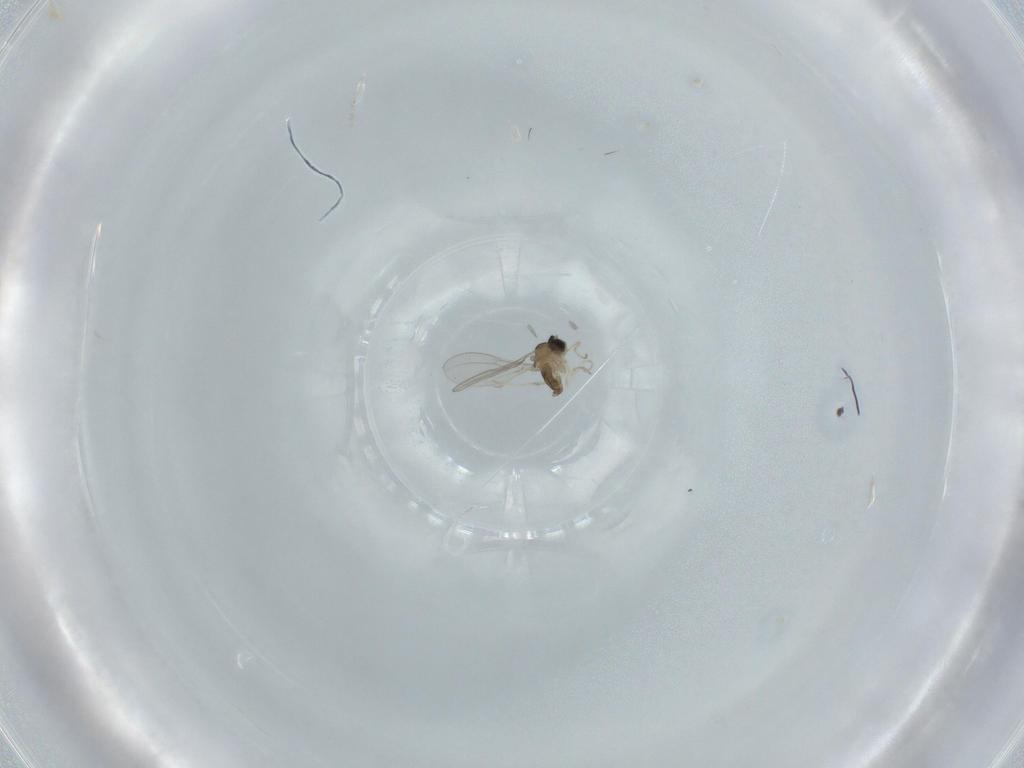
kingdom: Animalia
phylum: Arthropoda
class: Insecta
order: Diptera
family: Cecidomyiidae
